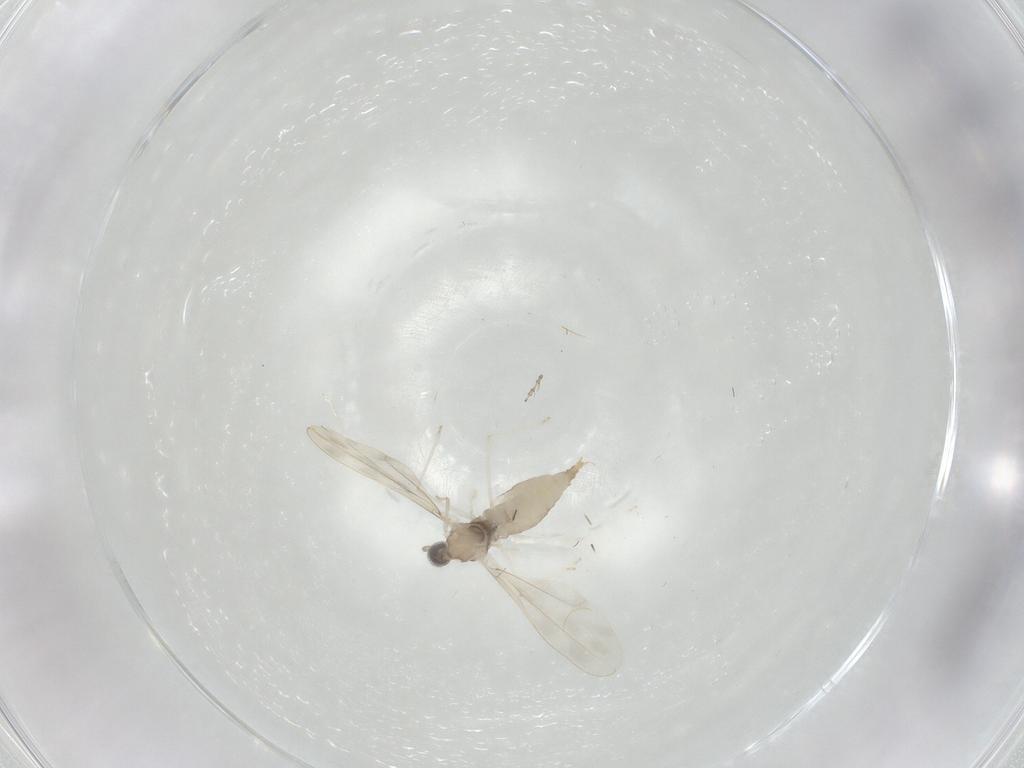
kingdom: Animalia
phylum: Arthropoda
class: Insecta
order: Diptera
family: Cecidomyiidae
